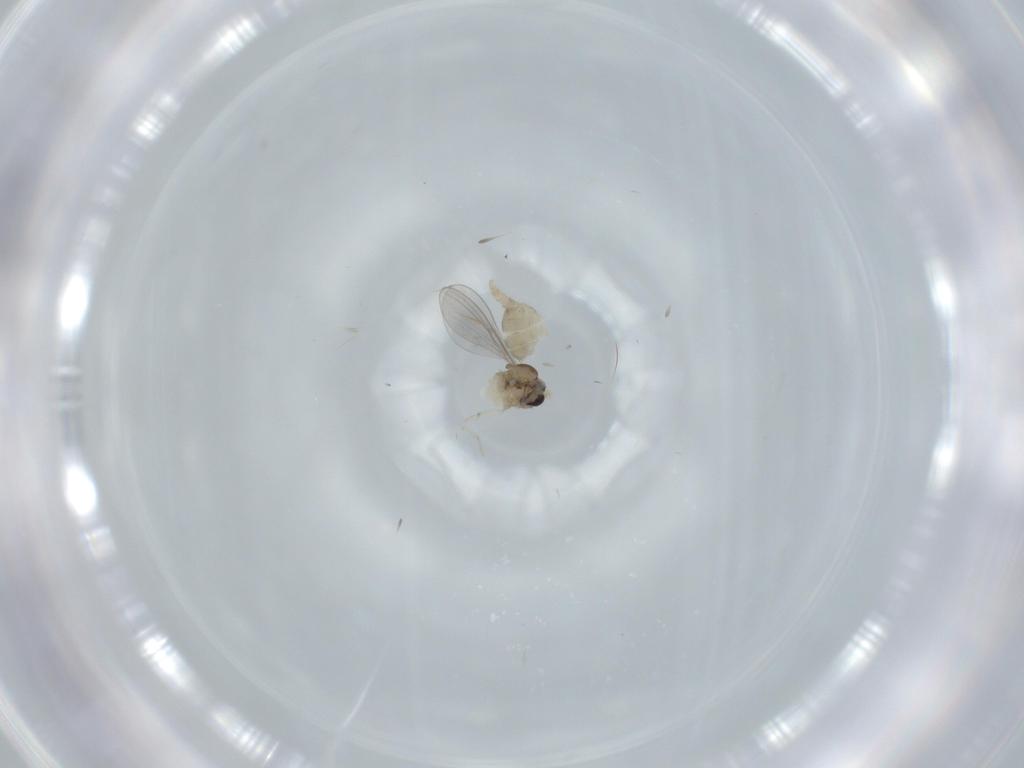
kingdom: Animalia
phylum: Arthropoda
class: Insecta
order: Diptera
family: Cecidomyiidae
